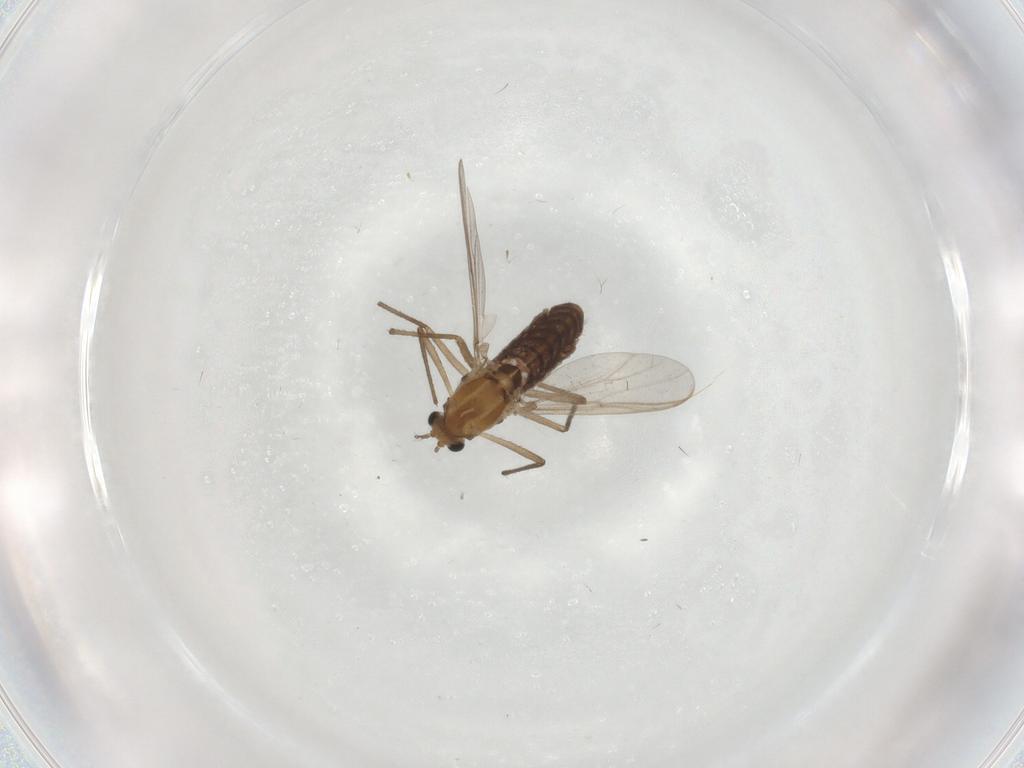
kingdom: Animalia
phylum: Arthropoda
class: Insecta
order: Diptera
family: Chironomidae
